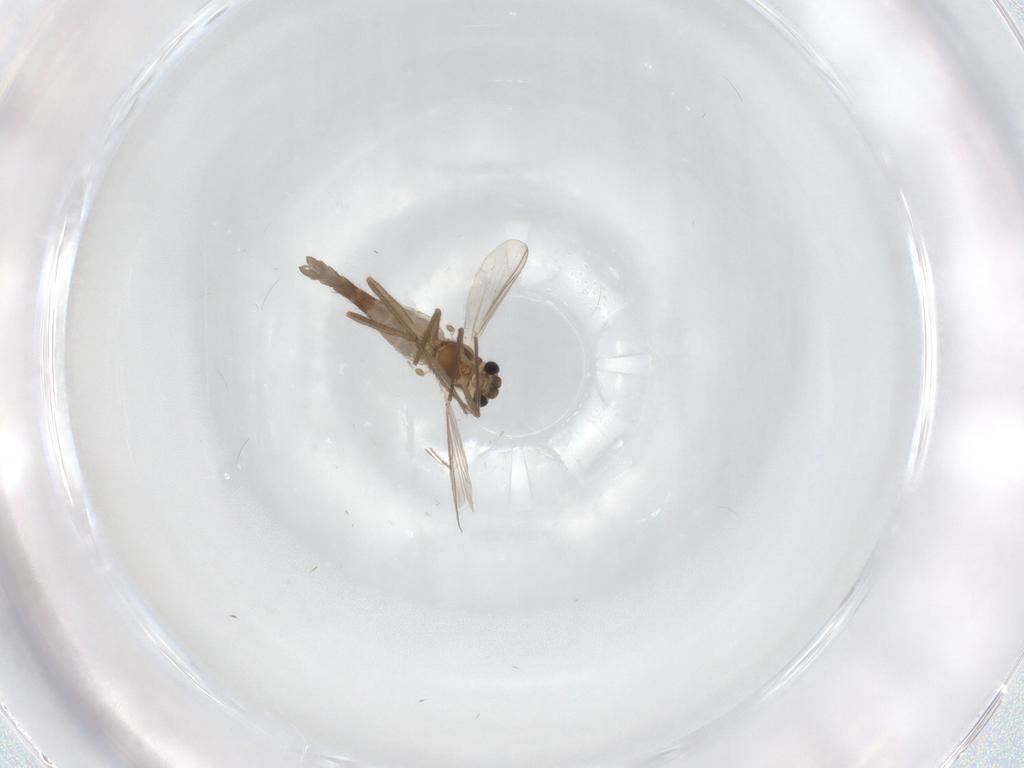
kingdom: Animalia
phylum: Arthropoda
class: Insecta
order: Diptera
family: Chironomidae
